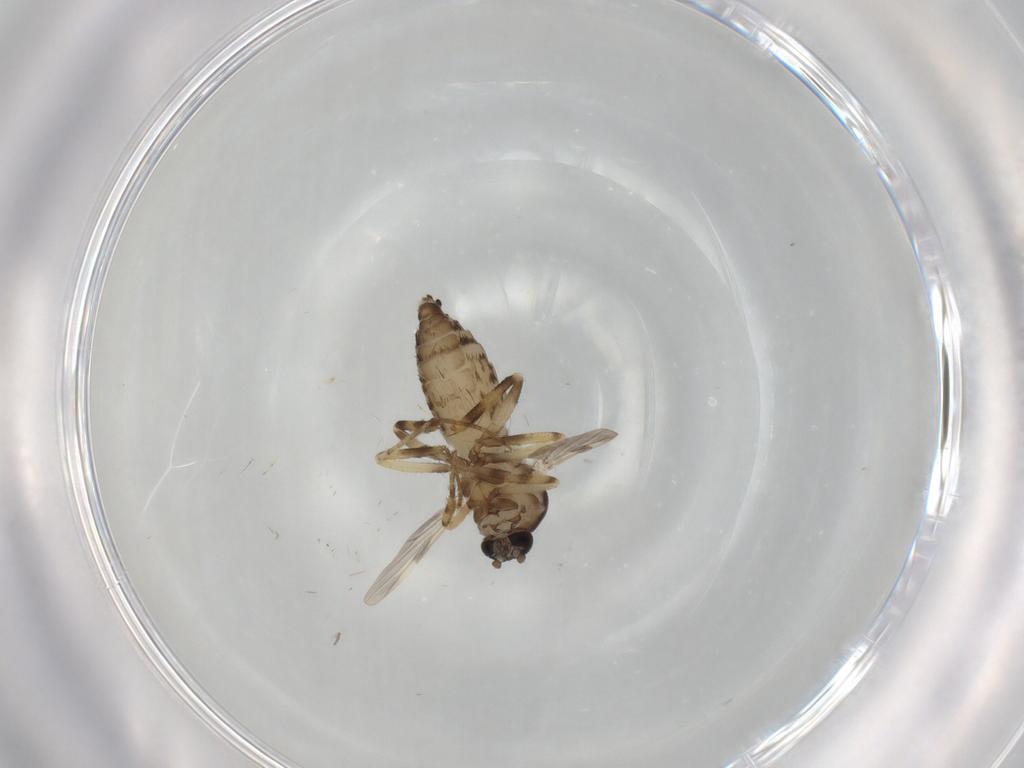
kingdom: Animalia
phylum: Arthropoda
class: Insecta
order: Diptera
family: Ceratopogonidae
